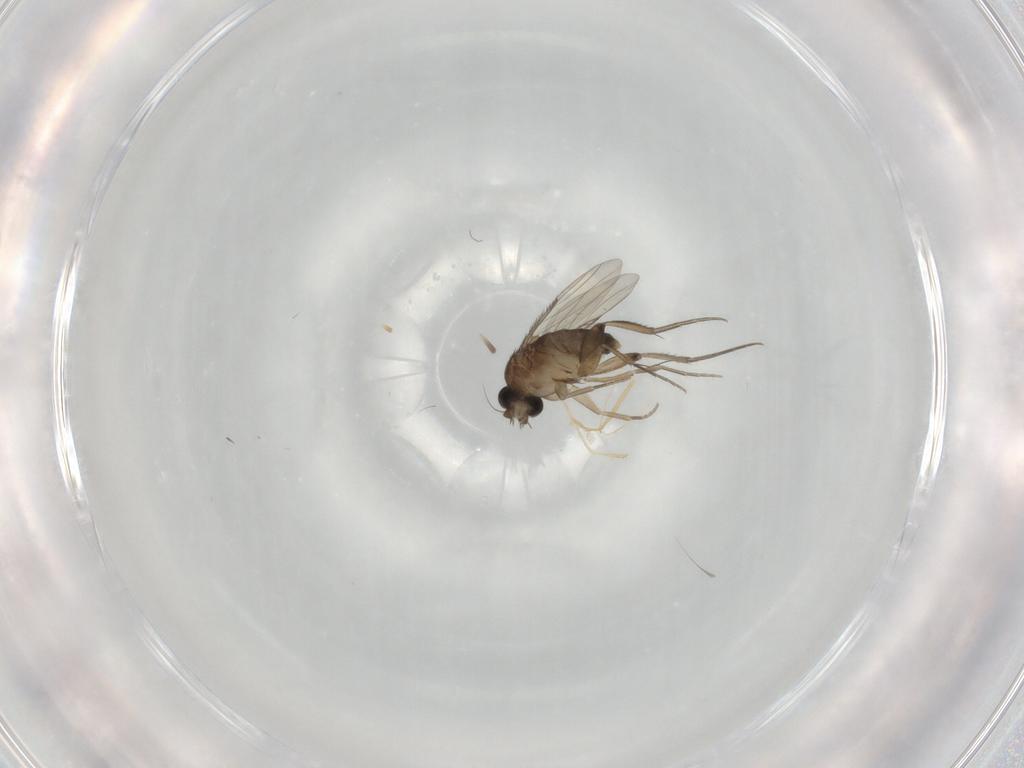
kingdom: Animalia
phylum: Arthropoda
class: Insecta
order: Diptera
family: Phoridae
